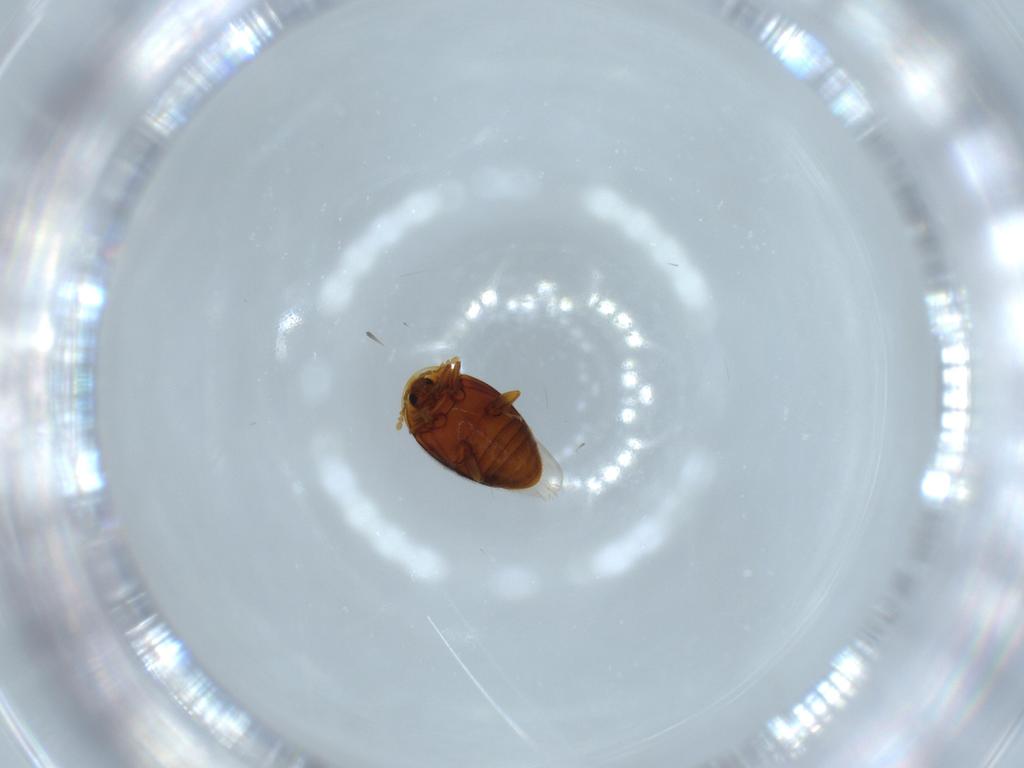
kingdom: Animalia
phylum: Arthropoda
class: Insecta
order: Coleoptera
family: Corylophidae
